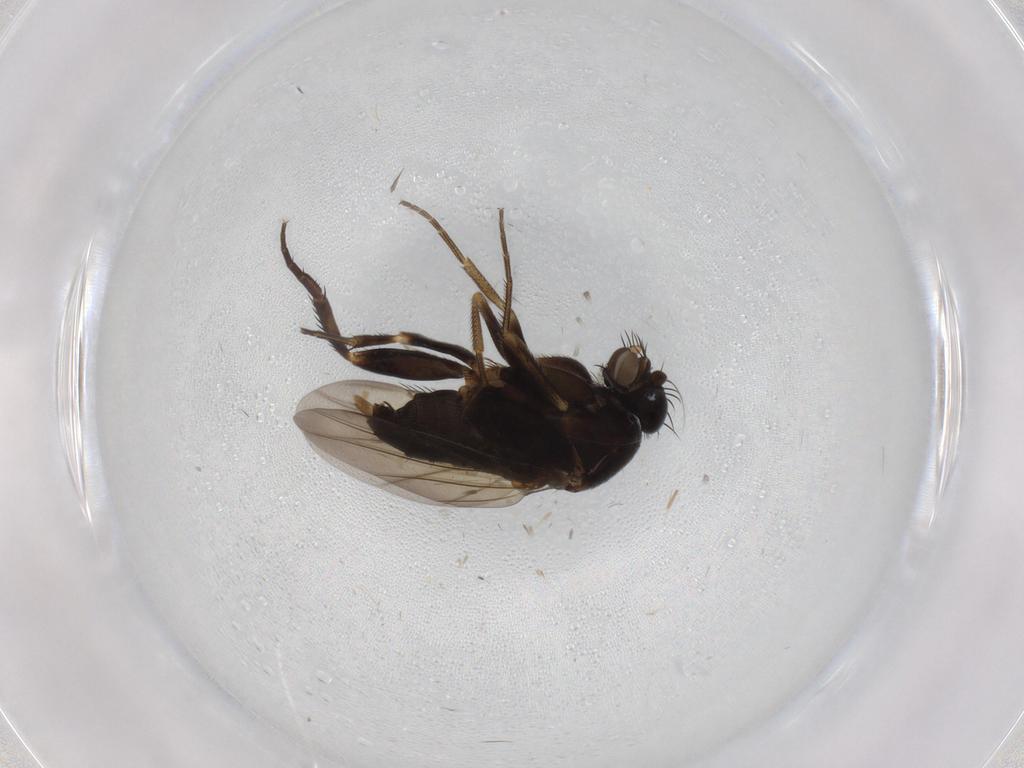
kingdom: Animalia
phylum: Arthropoda
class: Insecta
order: Diptera
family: Phoridae
